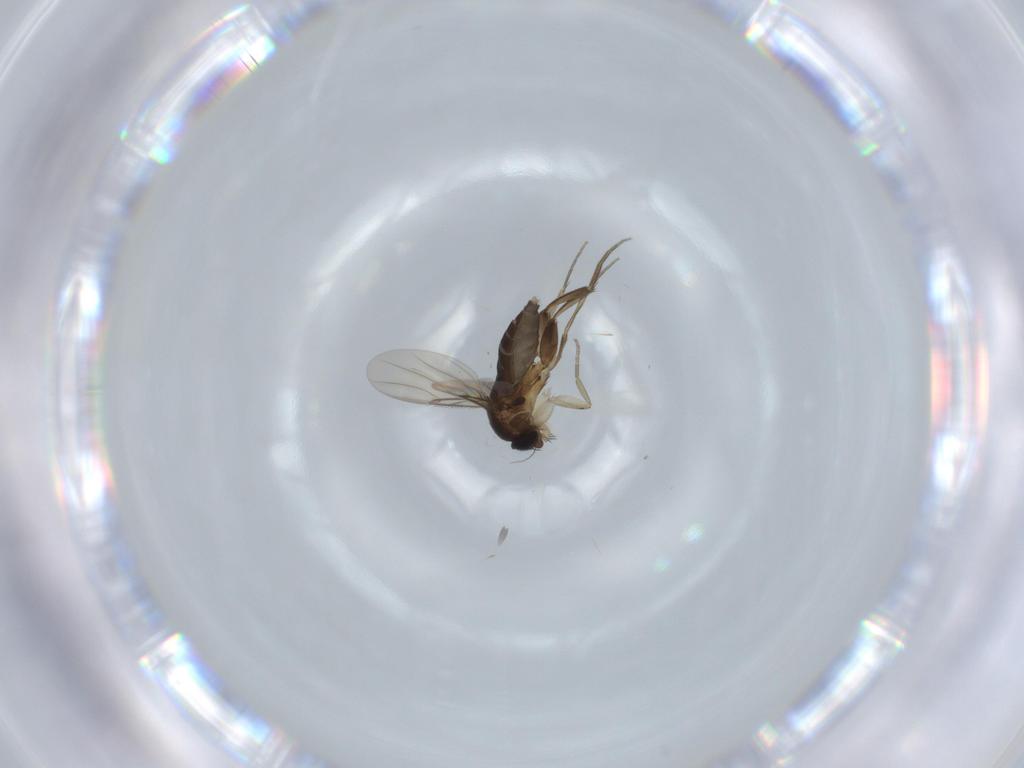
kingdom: Animalia
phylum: Arthropoda
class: Insecta
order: Diptera
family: Phoridae
